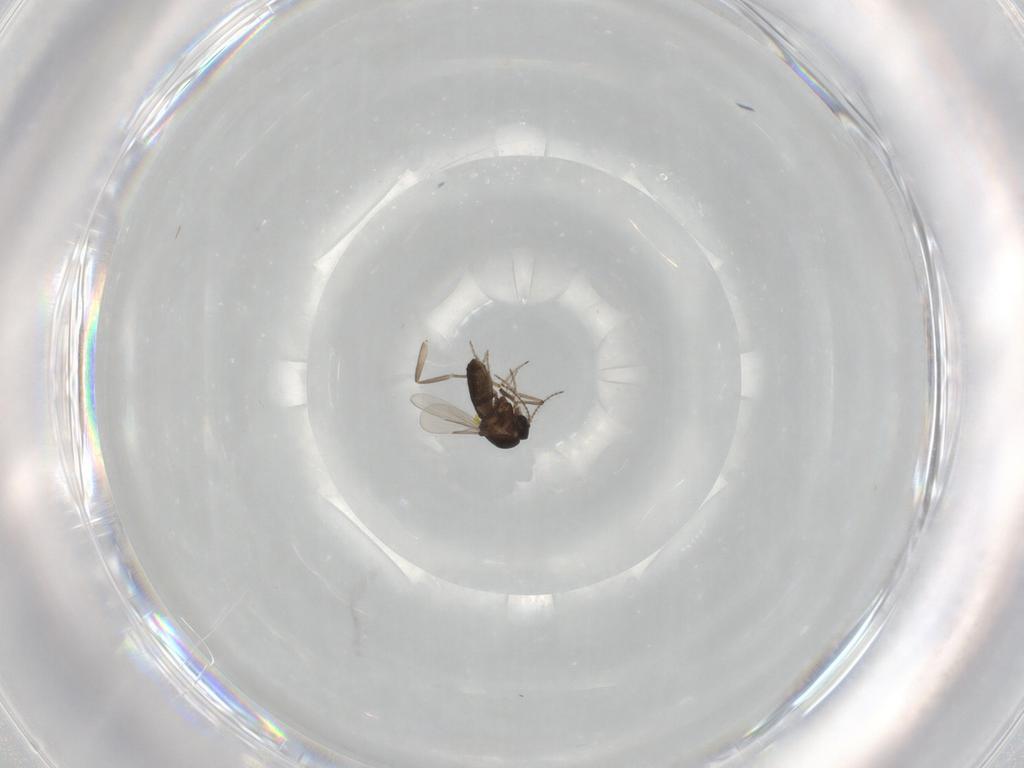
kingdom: Animalia
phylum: Arthropoda
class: Insecta
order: Diptera
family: Ceratopogonidae
